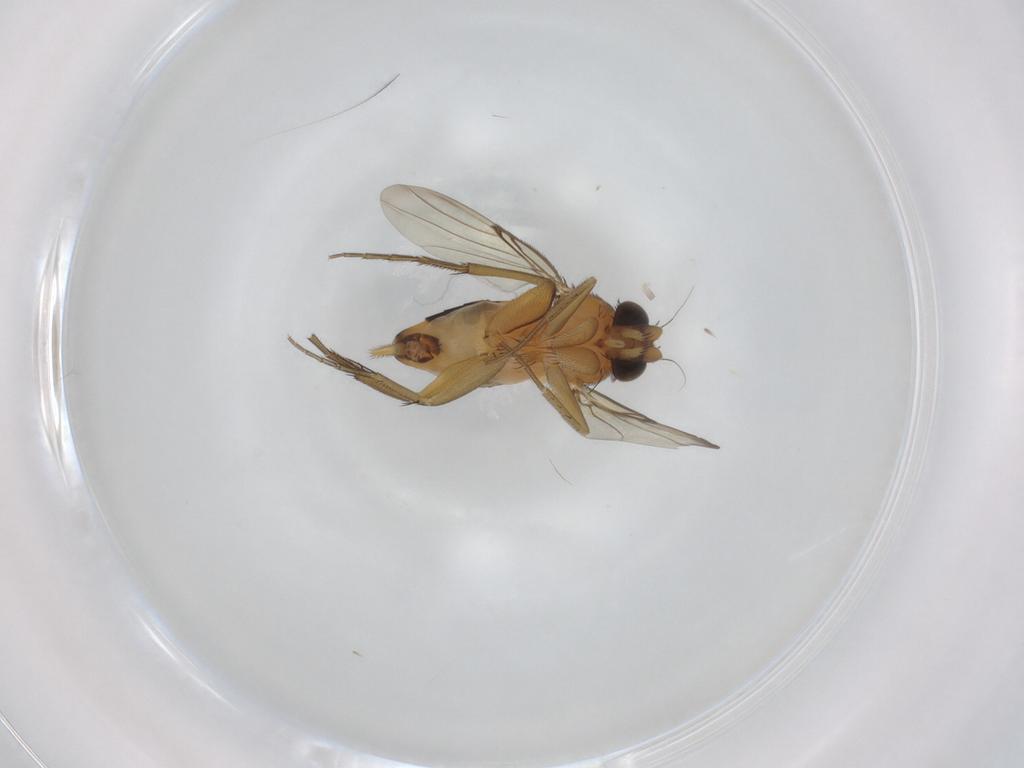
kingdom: Animalia
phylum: Arthropoda
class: Insecta
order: Diptera
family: Phoridae
